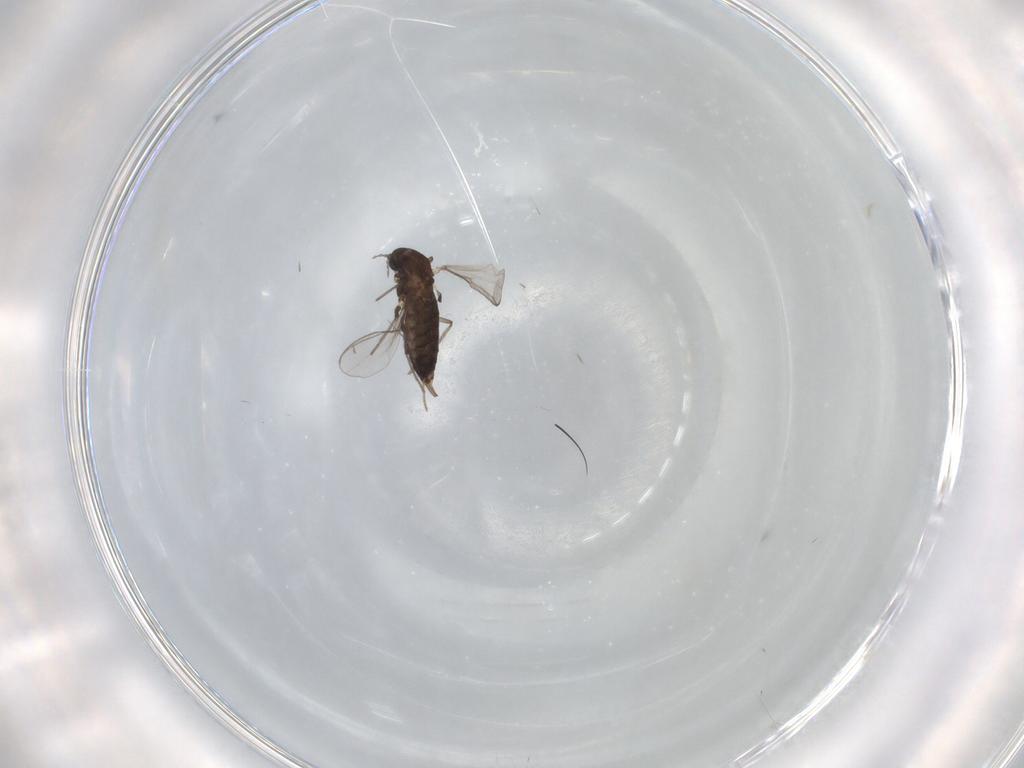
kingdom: Animalia
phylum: Arthropoda
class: Insecta
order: Diptera
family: Chironomidae
